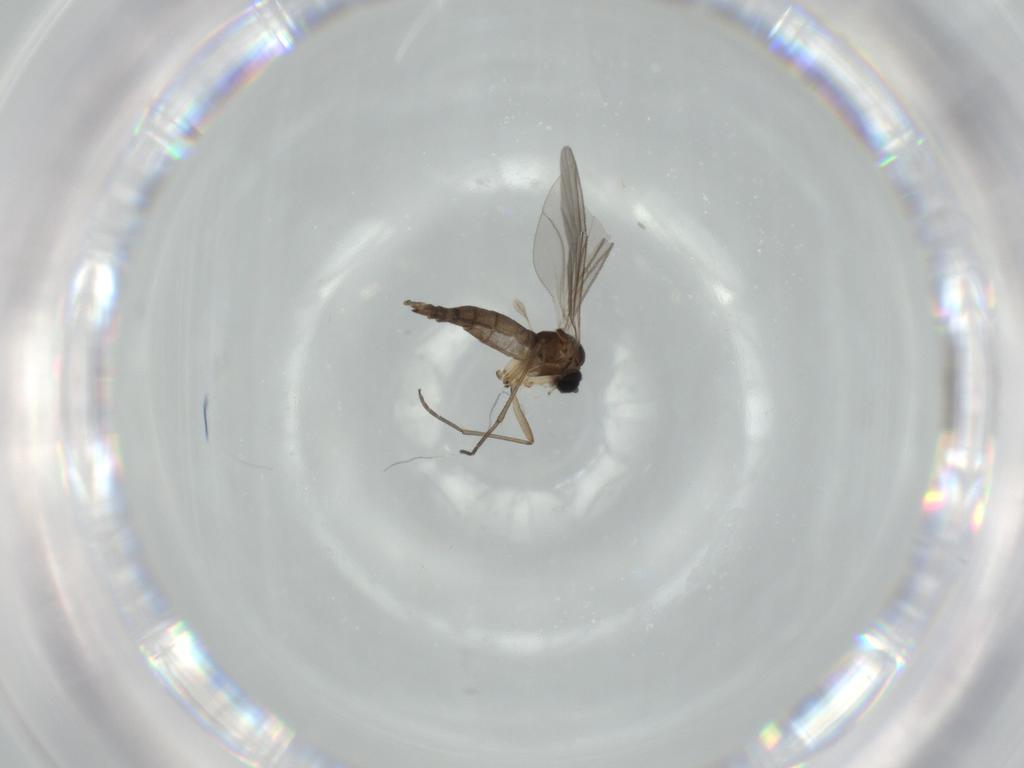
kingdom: Animalia
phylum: Arthropoda
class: Insecta
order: Diptera
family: Sciaridae
